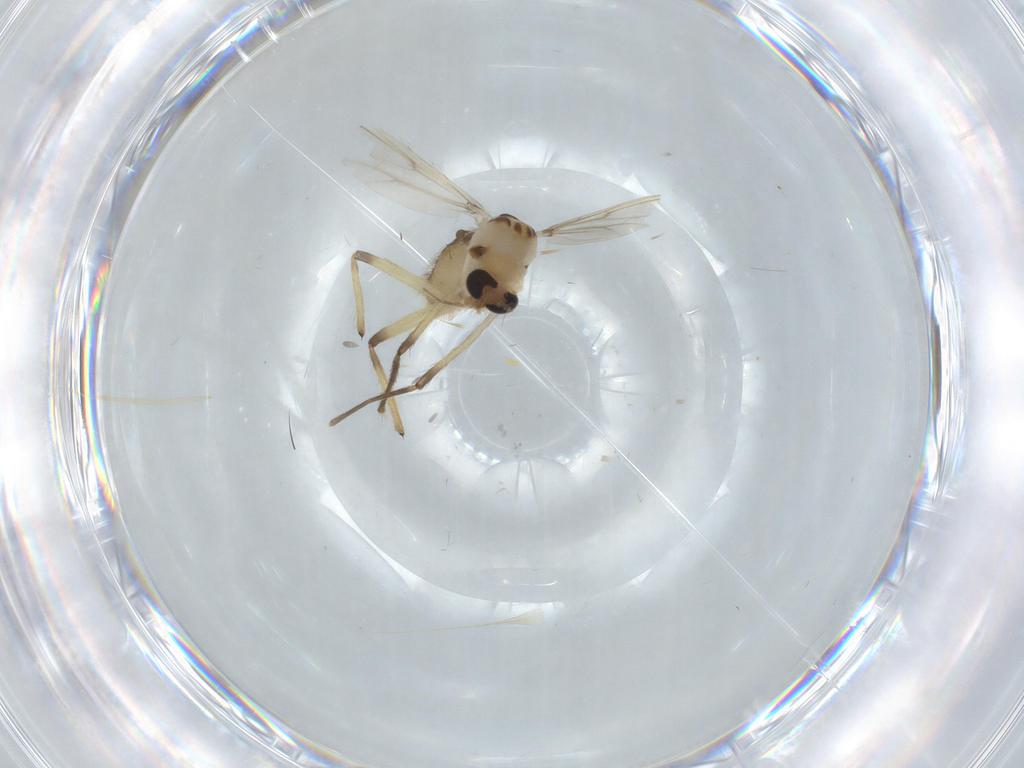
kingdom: Animalia
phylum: Arthropoda
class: Insecta
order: Diptera
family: Chironomidae
